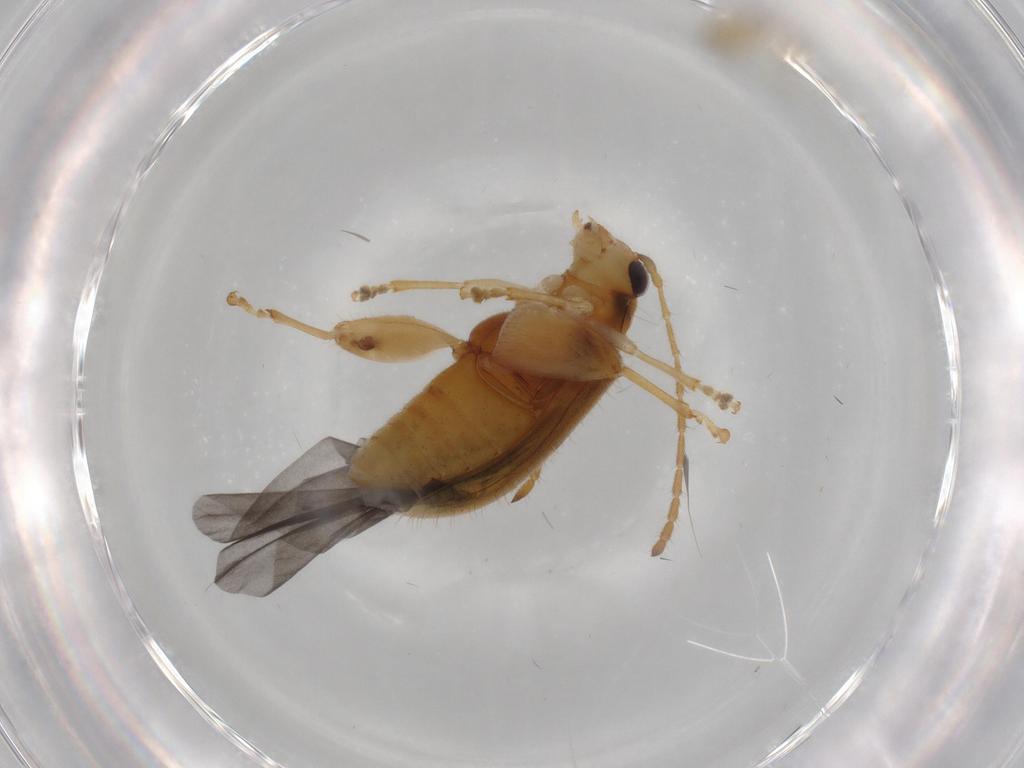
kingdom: Animalia
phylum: Arthropoda
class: Insecta
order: Coleoptera
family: Chrysomelidae
